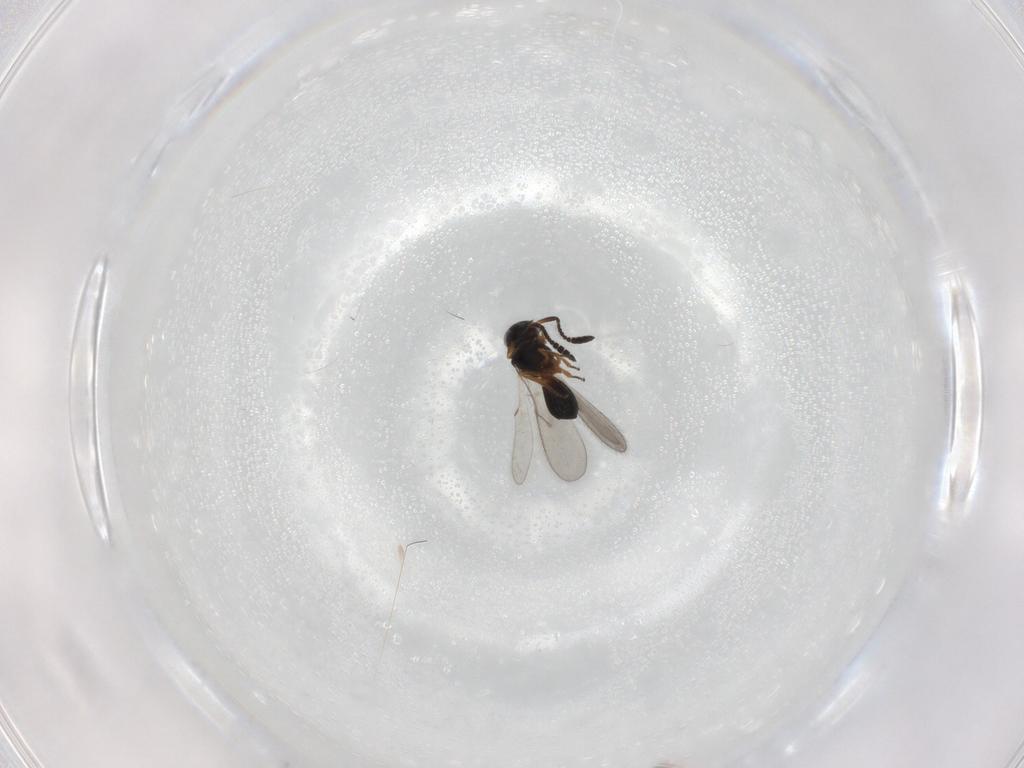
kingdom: Animalia
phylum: Arthropoda
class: Insecta
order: Hymenoptera
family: Scelionidae
